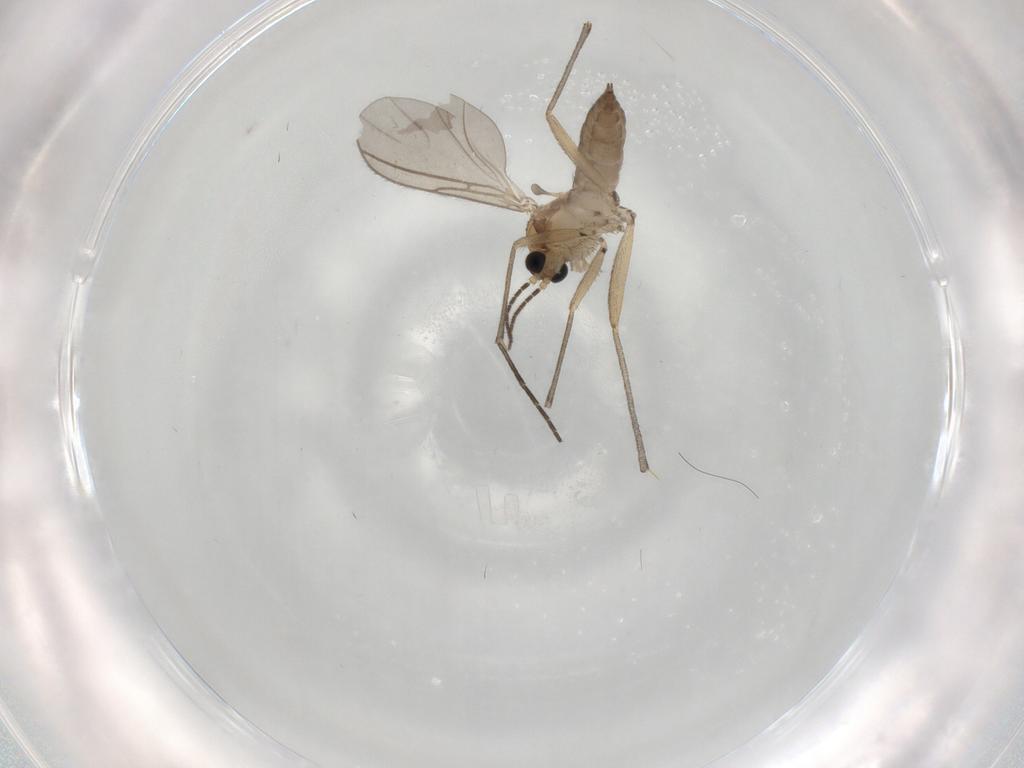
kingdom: Animalia
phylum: Arthropoda
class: Insecta
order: Diptera
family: Sciaridae
